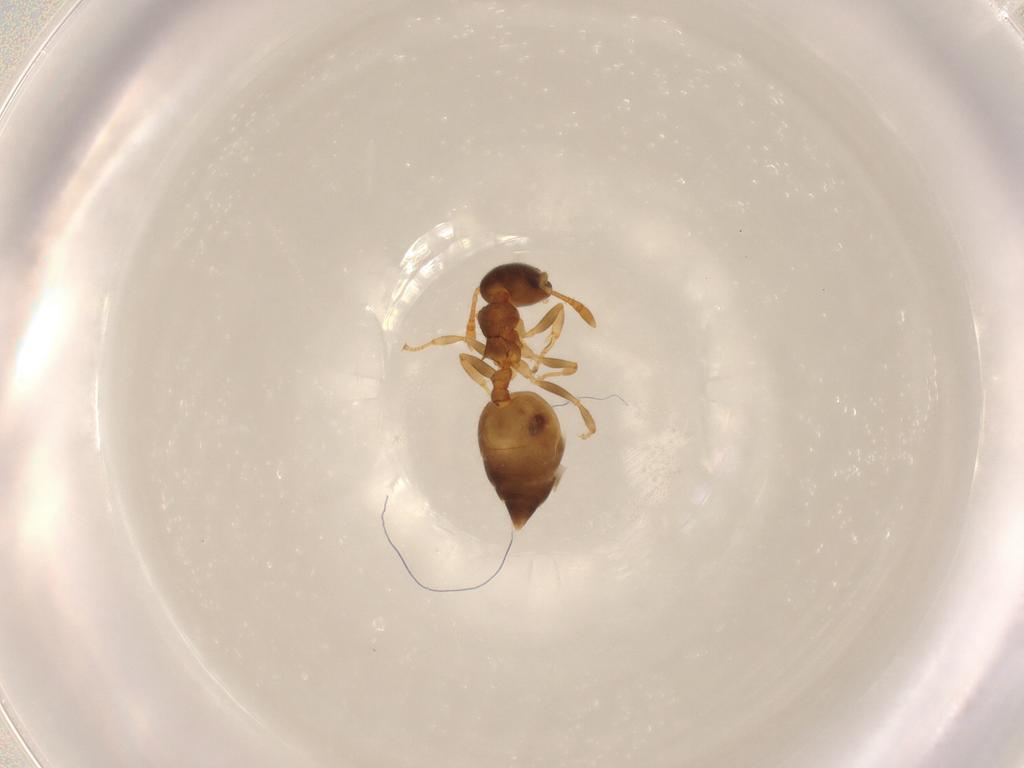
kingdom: Animalia
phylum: Arthropoda
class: Insecta
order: Hymenoptera
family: Formicidae
